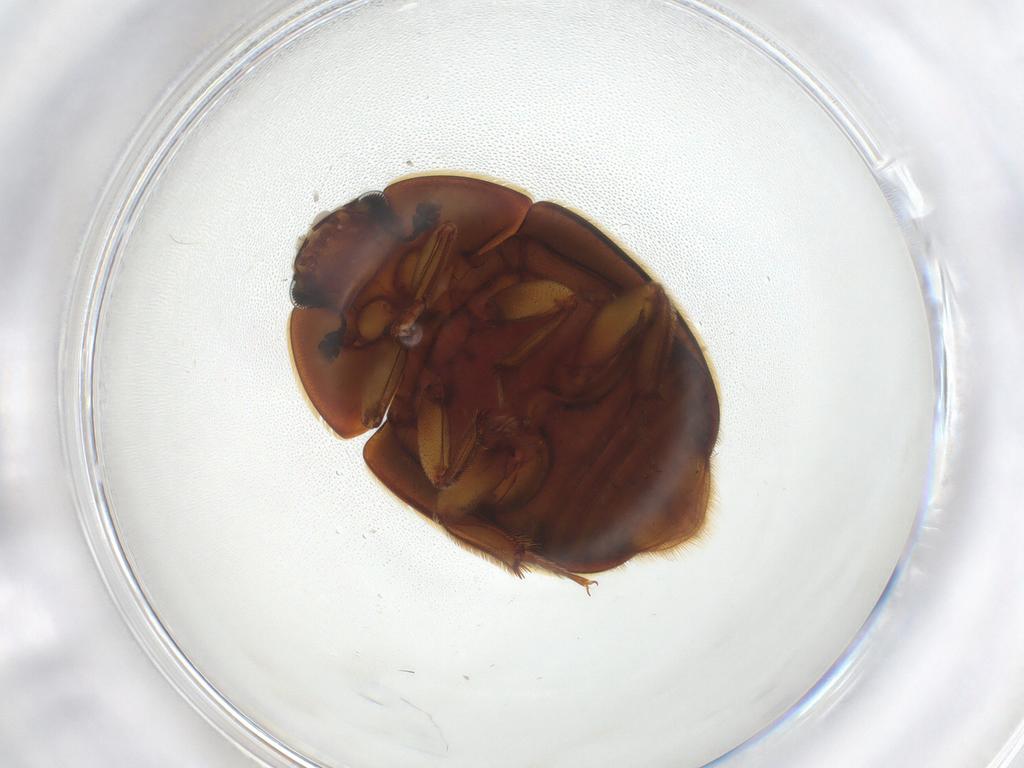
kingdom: Animalia
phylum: Arthropoda
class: Insecta
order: Coleoptera
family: Nitidulidae
